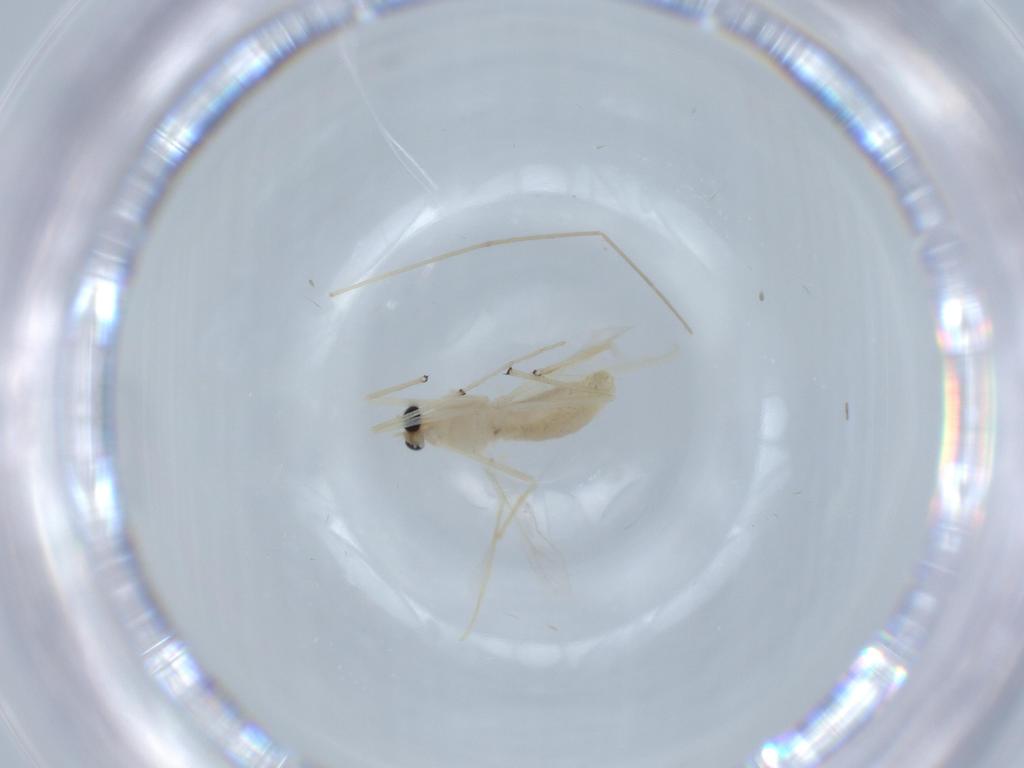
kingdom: Animalia
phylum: Arthropoda
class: Insecta
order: Diptera
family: Chironomidae
